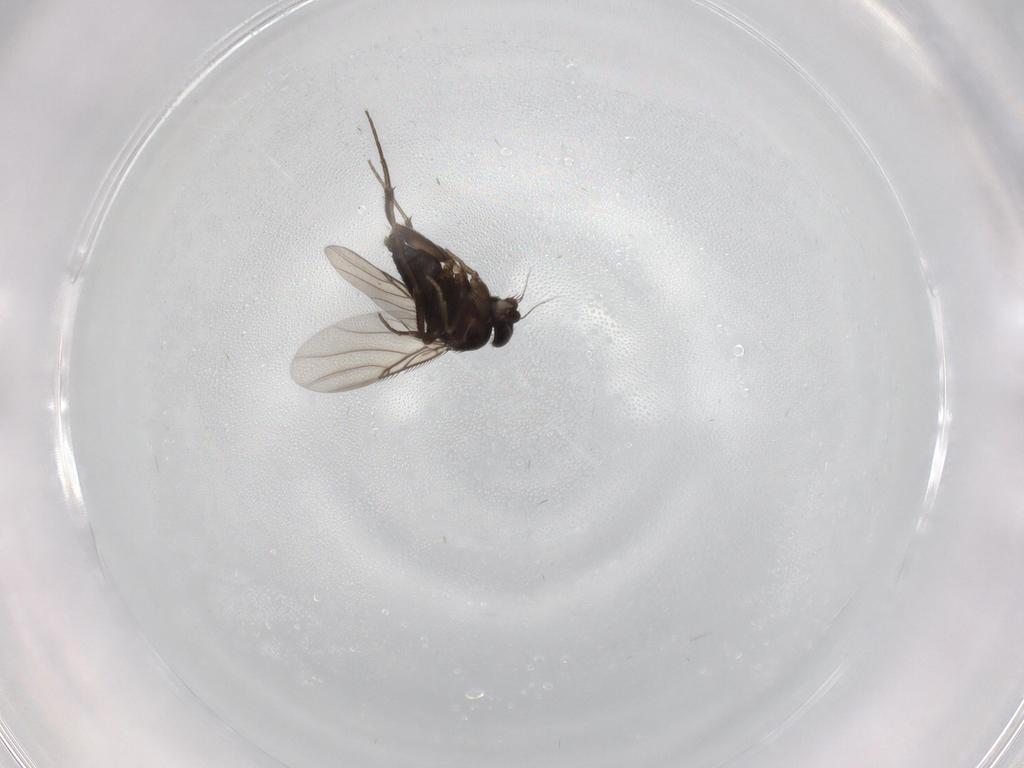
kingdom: Animalia
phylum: Arthropoda
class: Insecta
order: Diptera
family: Phoridae
